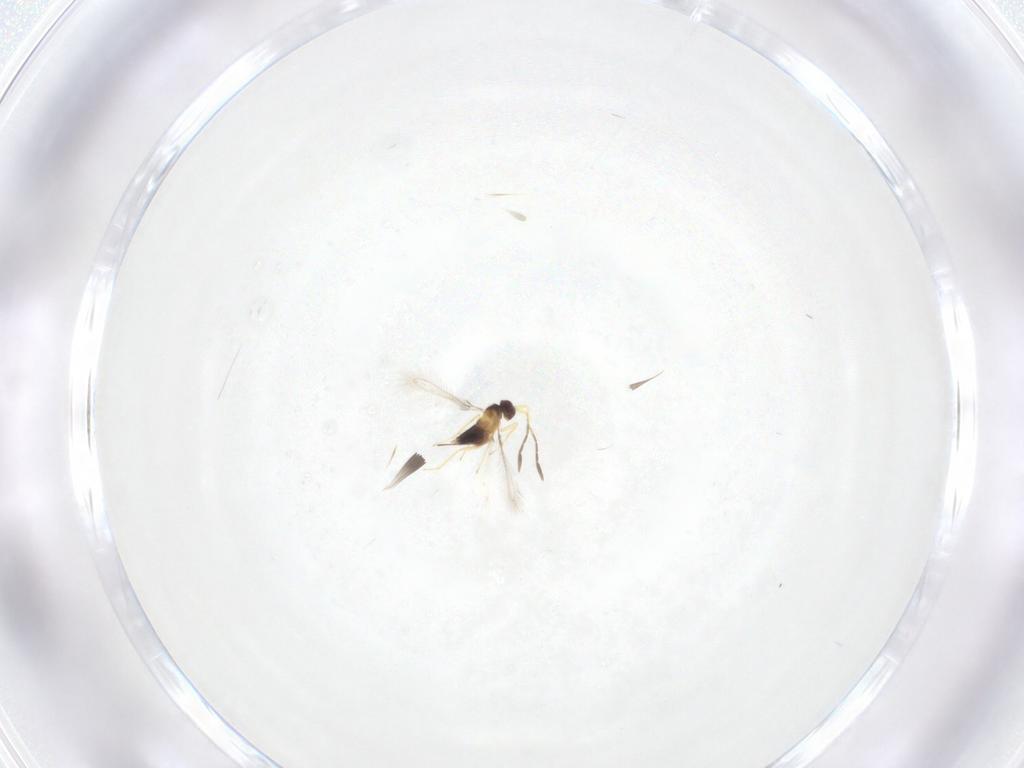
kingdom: Animalia
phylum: Arthropoda
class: Insecta
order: Hymenoptera
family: Mymaridae
